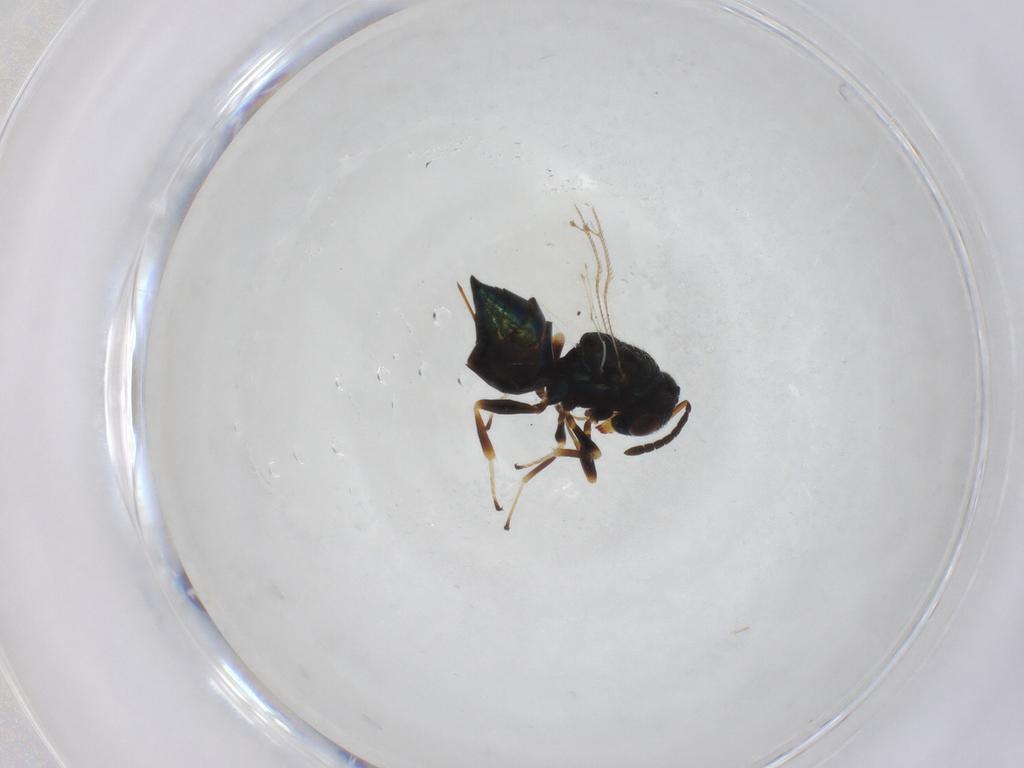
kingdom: Animalia
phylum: Arthropoda
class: Insecta
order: Hymenoptera
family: Pteromalidae
